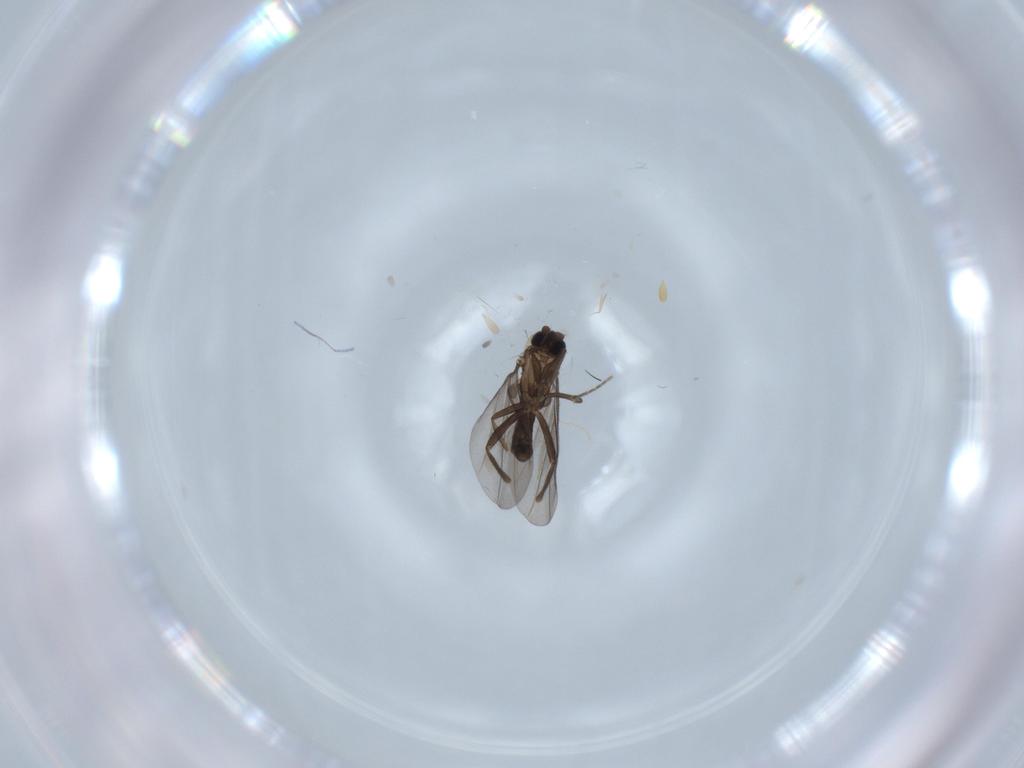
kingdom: Animalia
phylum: Arthropoda
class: Insecta
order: Diptera
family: Phoridae
